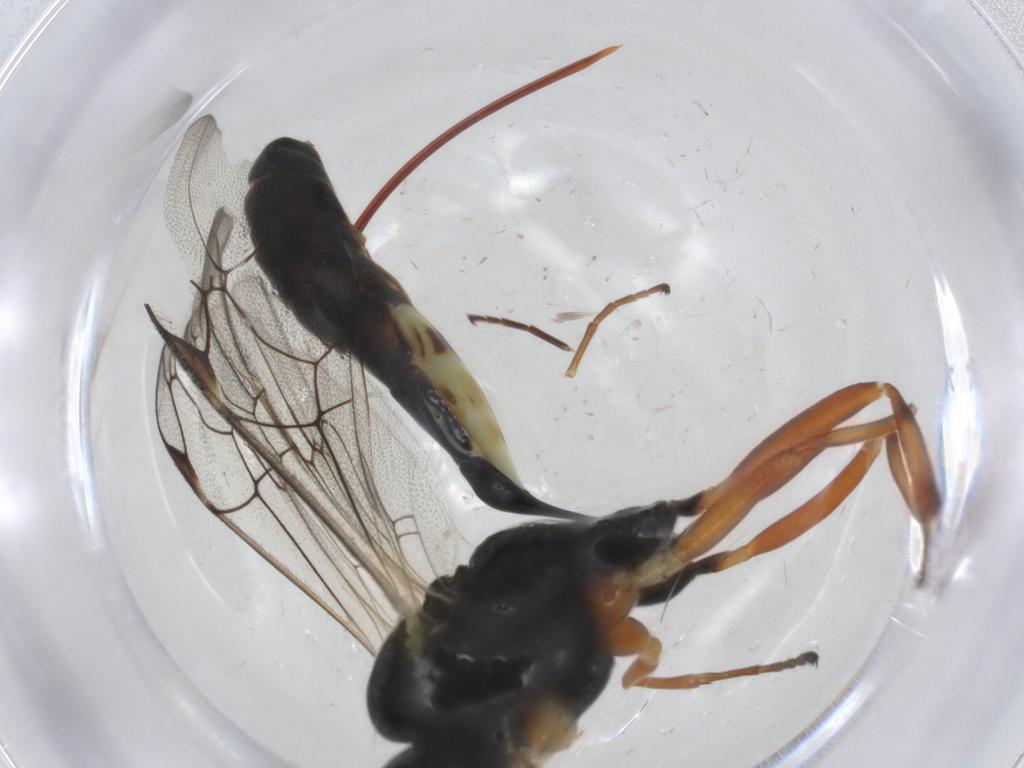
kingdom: Animalia
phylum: Arthropoda
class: Insecta
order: Hymenoptera
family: Ichneumonidae
